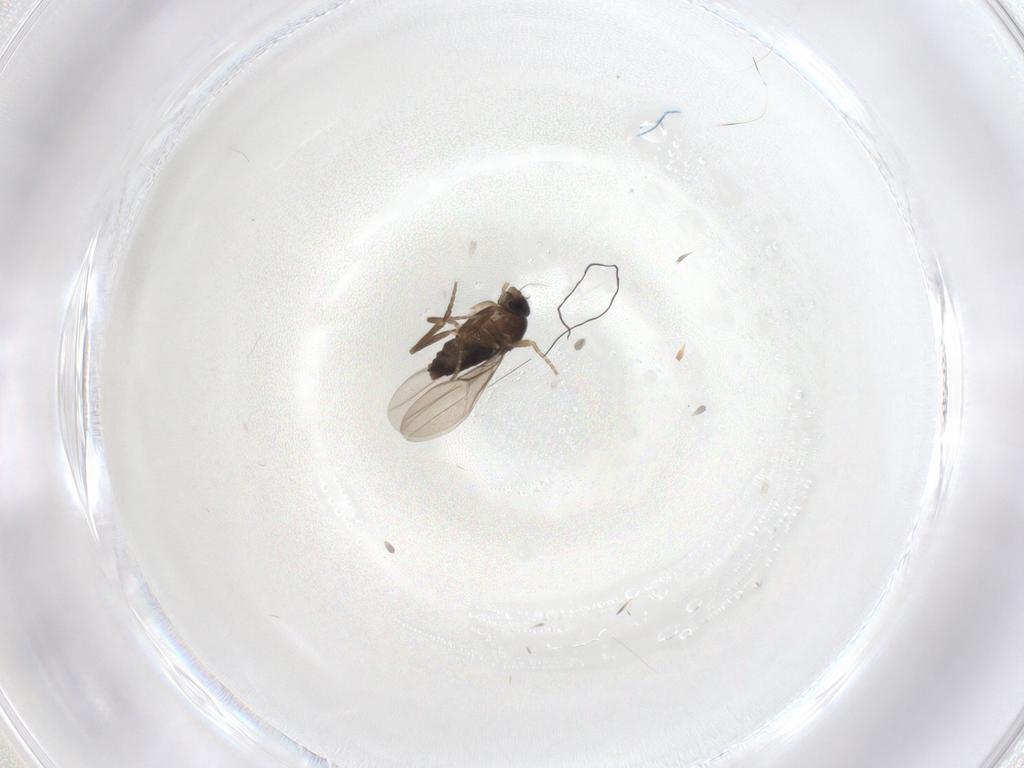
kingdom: Animalia
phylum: Arthropoda
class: Insecta
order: Diptera
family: Phoridae
